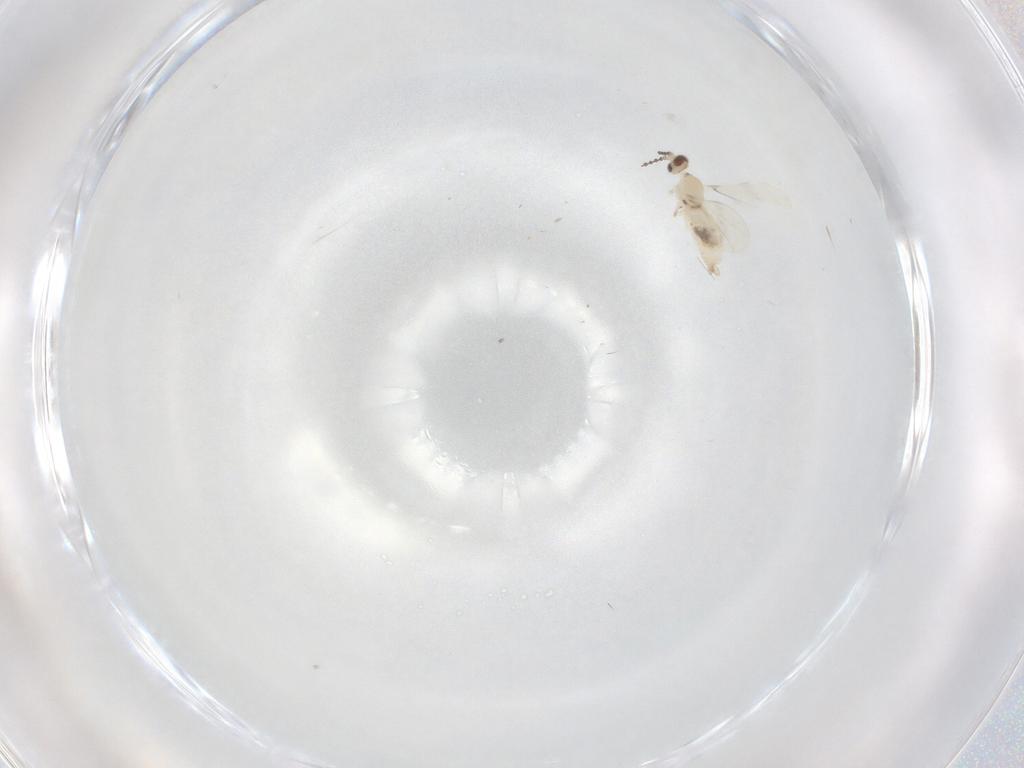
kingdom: Animalia
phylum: Arthropoda
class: Insecta
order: Diptera
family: Cecidomyiidae
